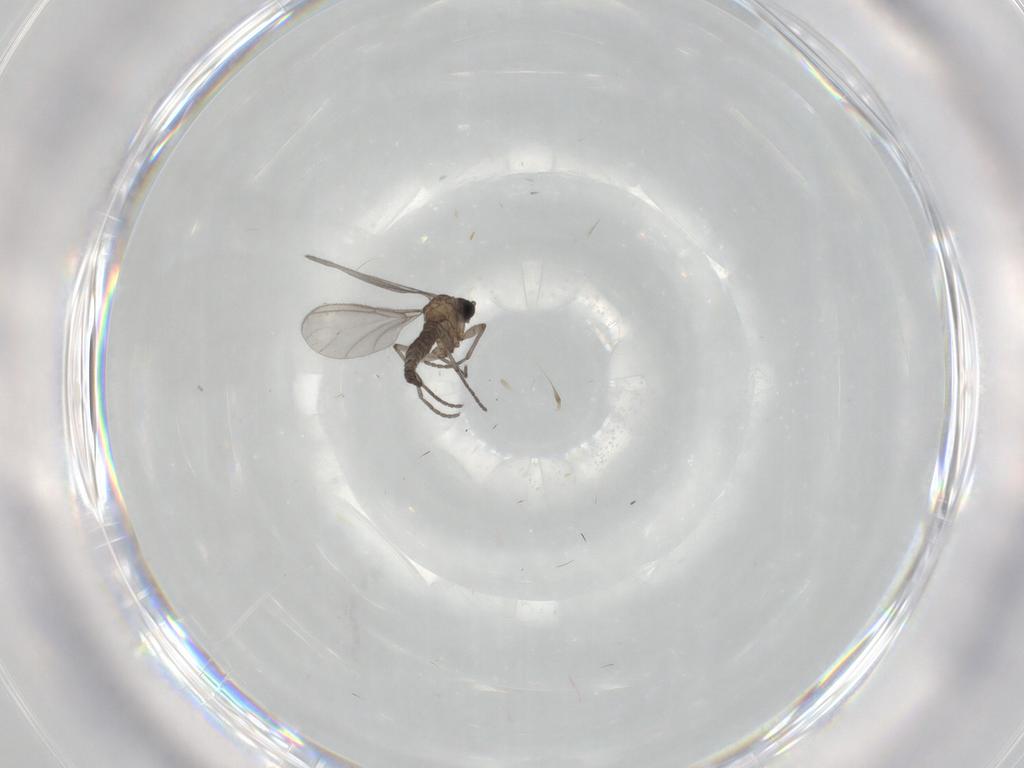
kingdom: Animalia
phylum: Arthropoda
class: Insecta
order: Diptera
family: Sciaridae
